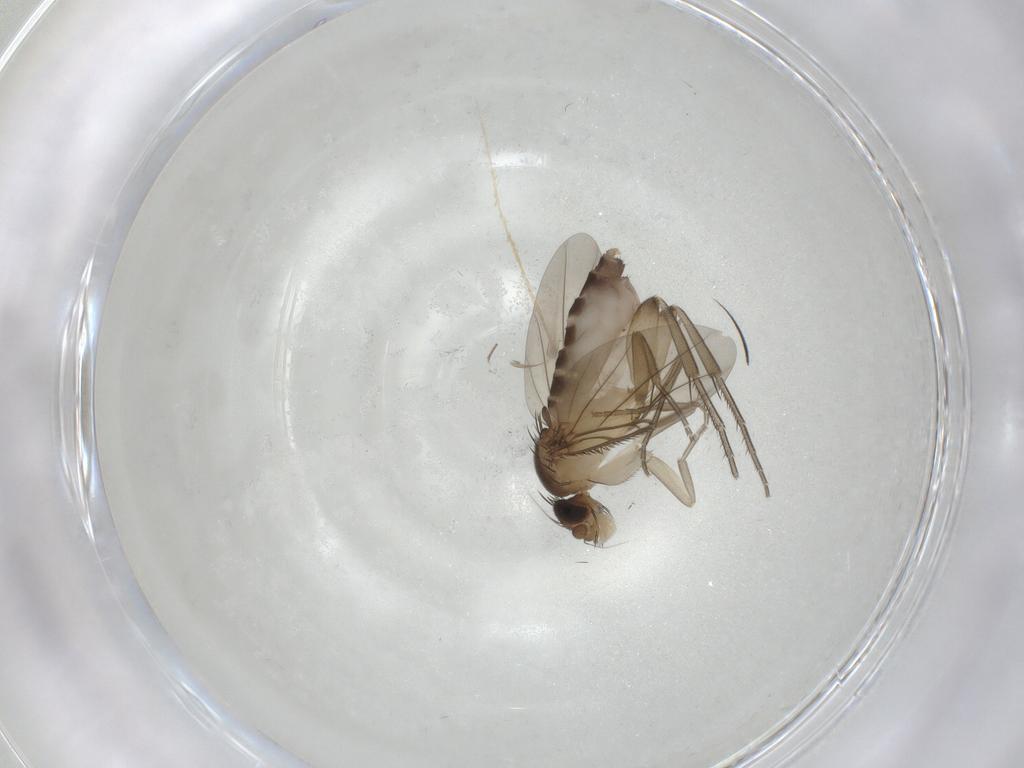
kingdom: Animalia
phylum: Arthropoda
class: Insecta
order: Diptera
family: Phoridae
